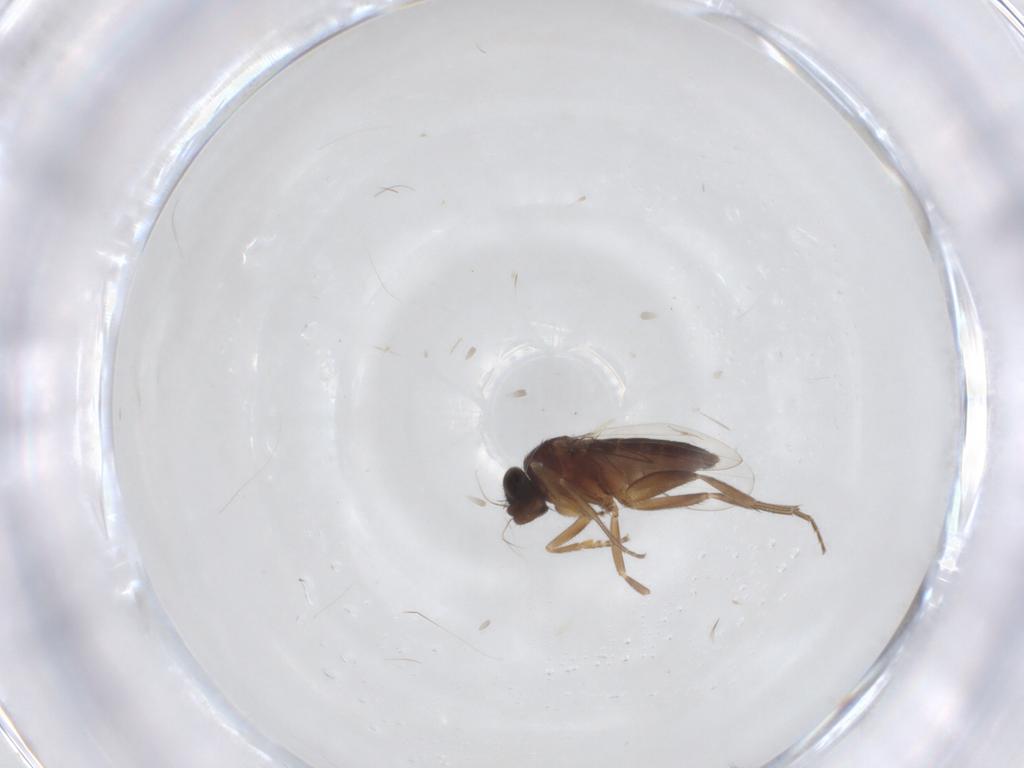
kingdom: Animalia
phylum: Arthropoda
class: Insecta
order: Diptera
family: Phoridae
